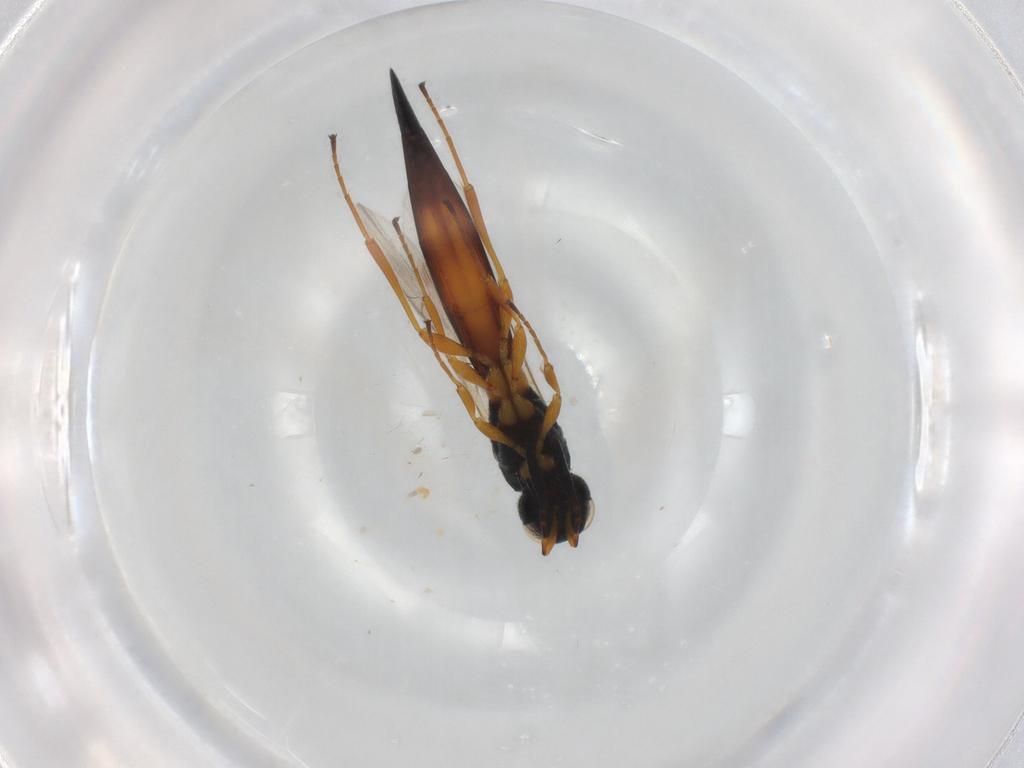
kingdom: Animalia
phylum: Arthropoda
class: Insecta
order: Hymenoptera
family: Scelionidae
